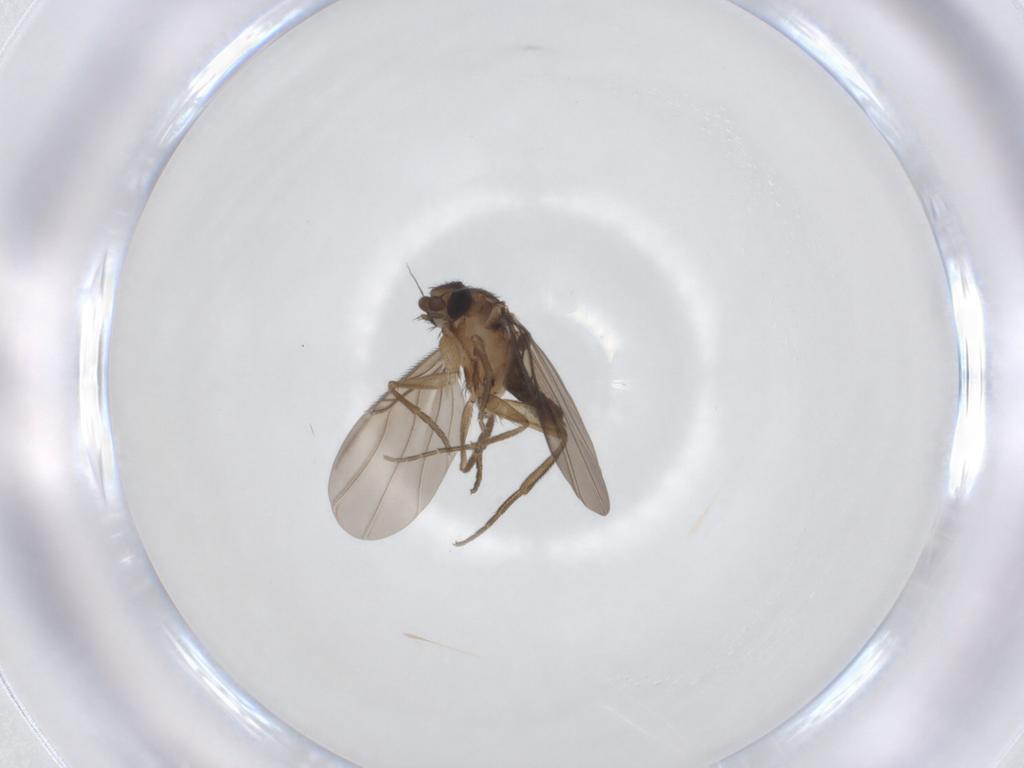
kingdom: Animalia
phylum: Arthropoda
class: Insecta
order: Diptera
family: Phoridae
